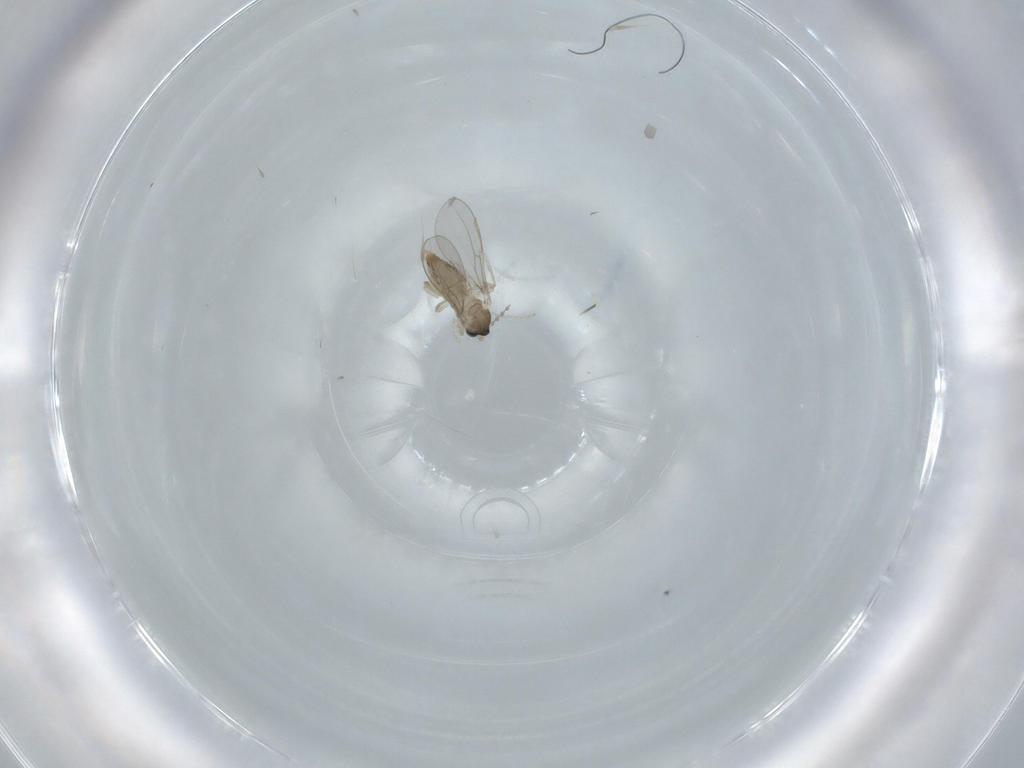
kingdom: Animalia
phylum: Arthropoda
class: Insecta
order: Diptera
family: Cecidomyiidae
